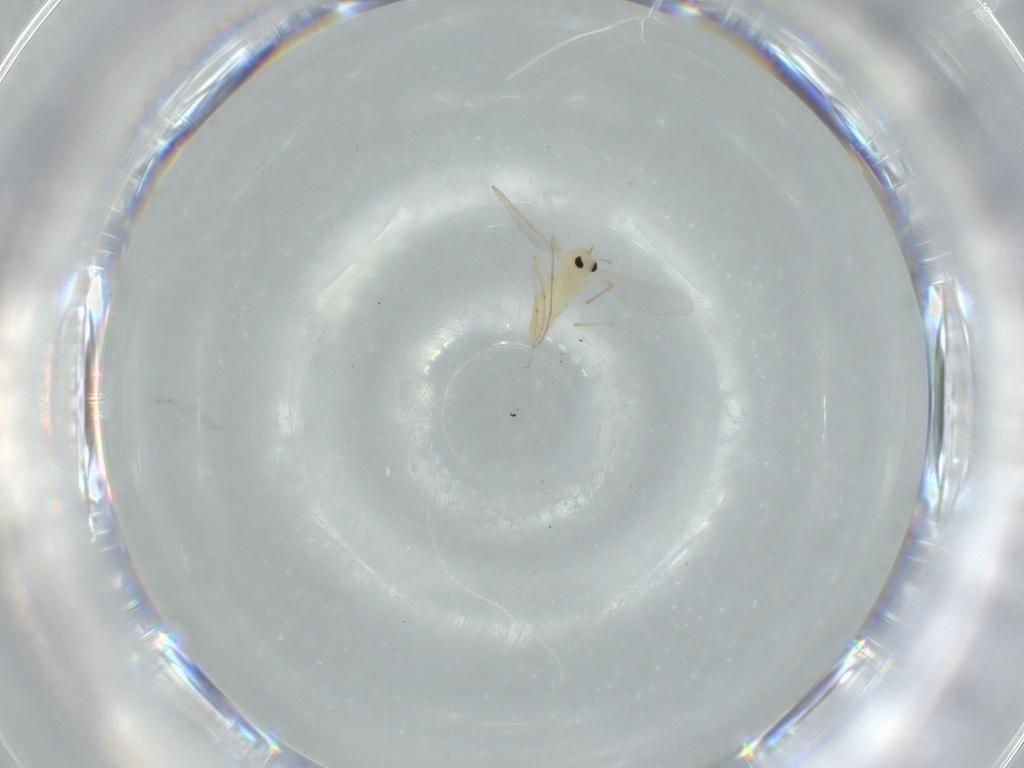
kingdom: Animalia
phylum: Arthropoda
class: Insecta
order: Diptera
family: Chironomidae
